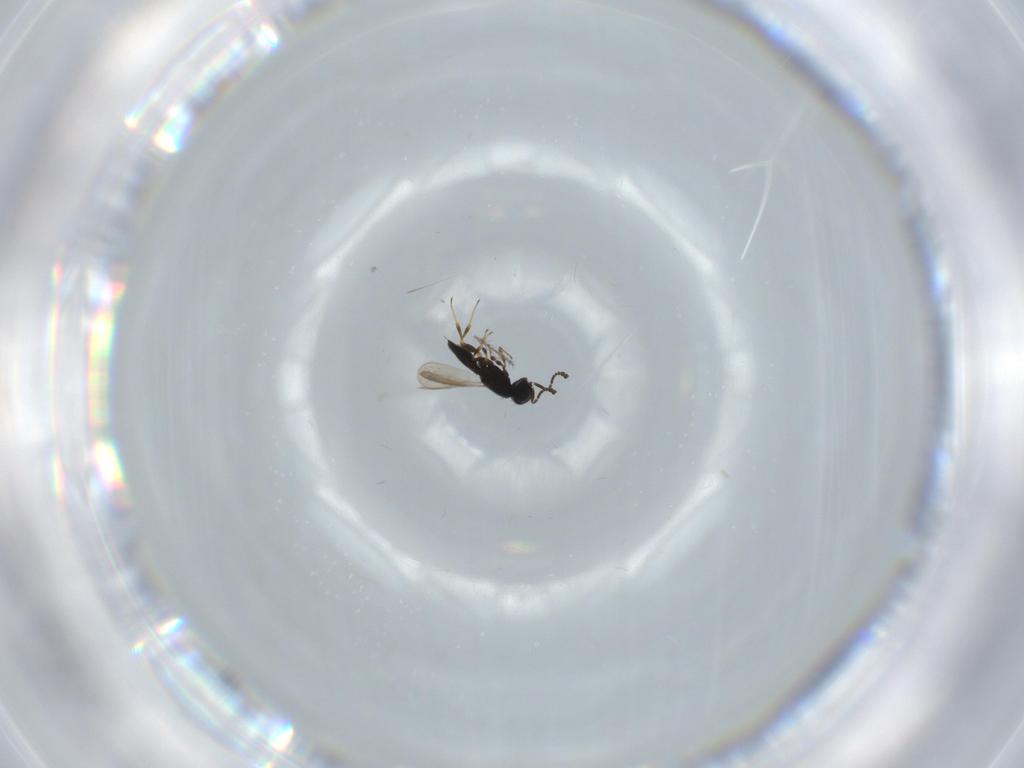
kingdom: Animalia
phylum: Arthropoda
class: Insecta
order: Hymenoptera
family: Scelionidae
